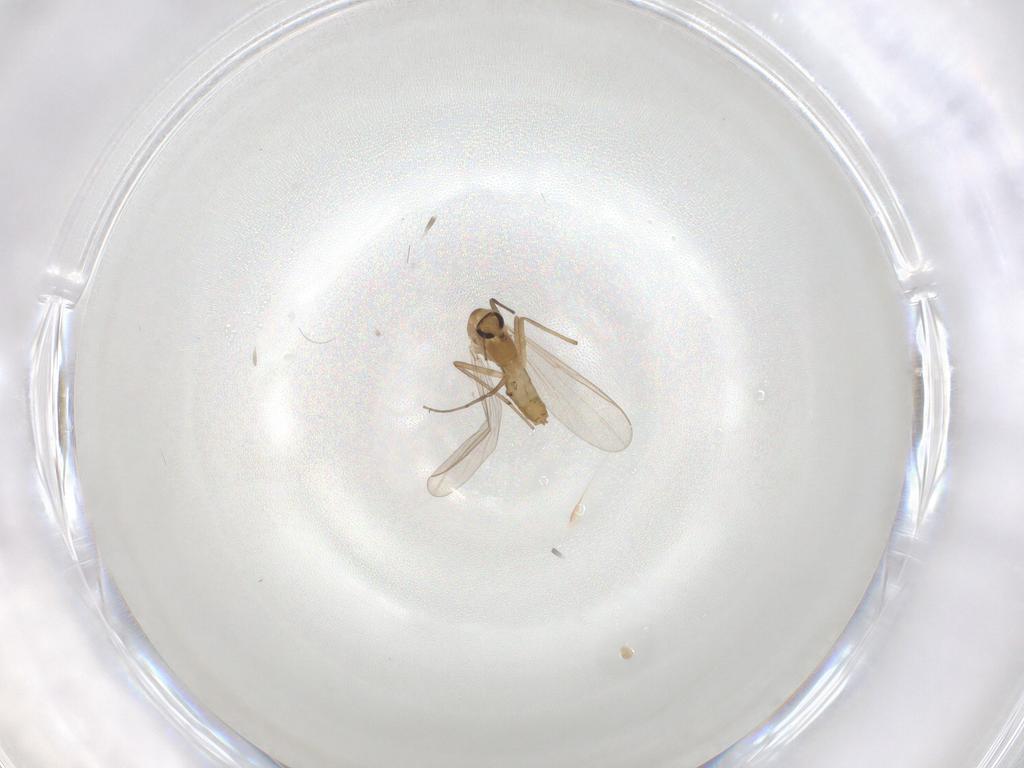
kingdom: Animalia
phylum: Arthropoda
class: Insecta
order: Diptera
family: Chironomidae
